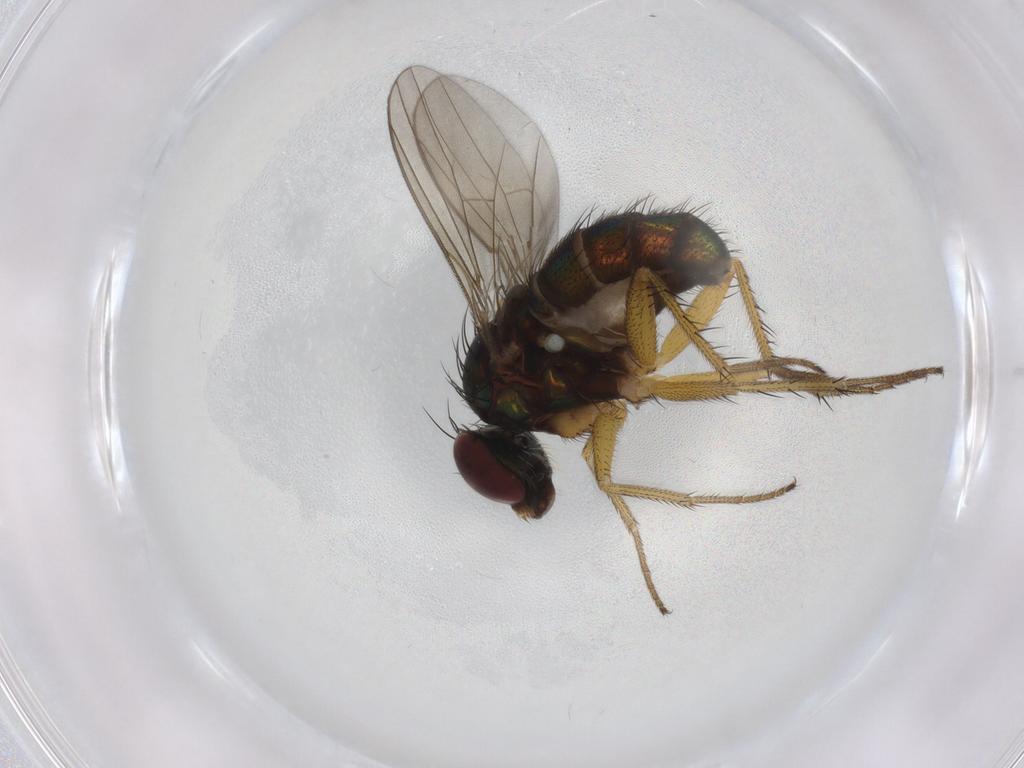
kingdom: Animalia
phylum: Arthropoda
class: Insecta
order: Diptera
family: Dolichopodidae
